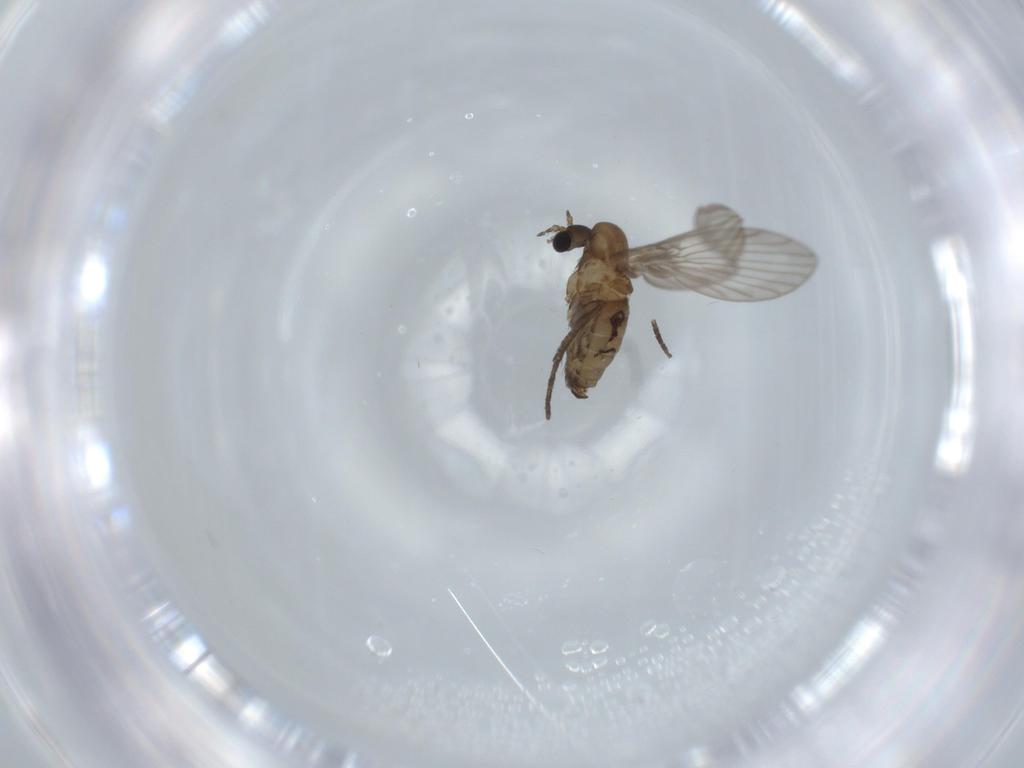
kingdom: Animalia
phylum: Arthropoda
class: Insecta
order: Diptera
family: Psychodidae
